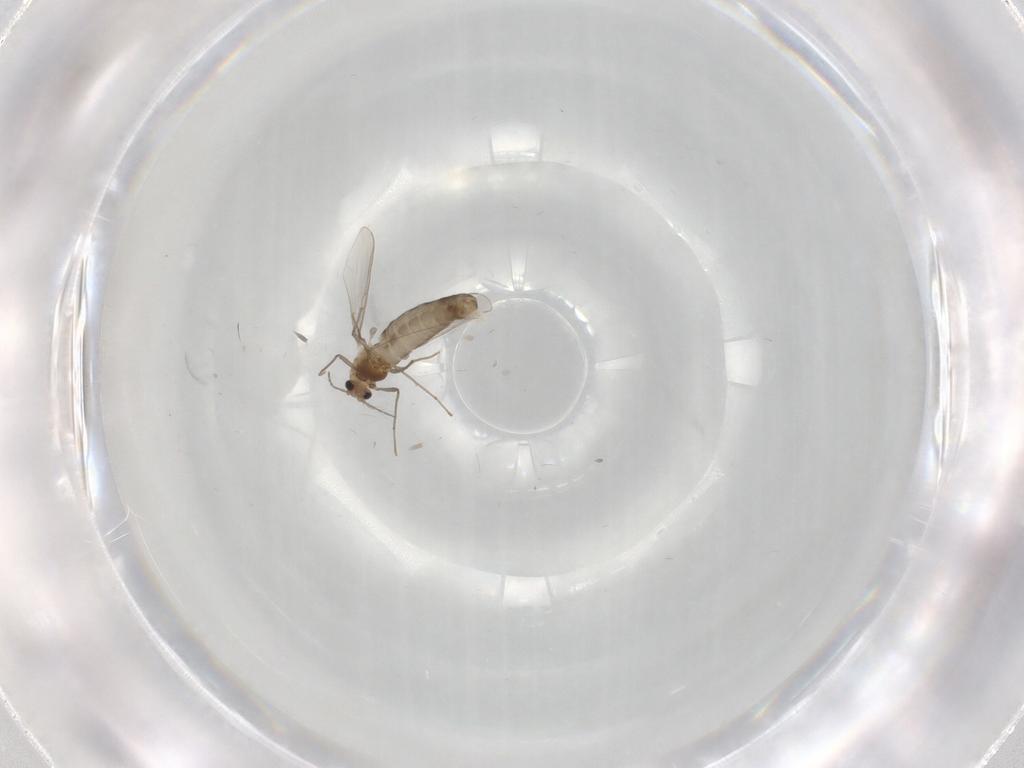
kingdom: Animalia
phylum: Arthropoda
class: Insecta
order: Diptera
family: Chironomidae
